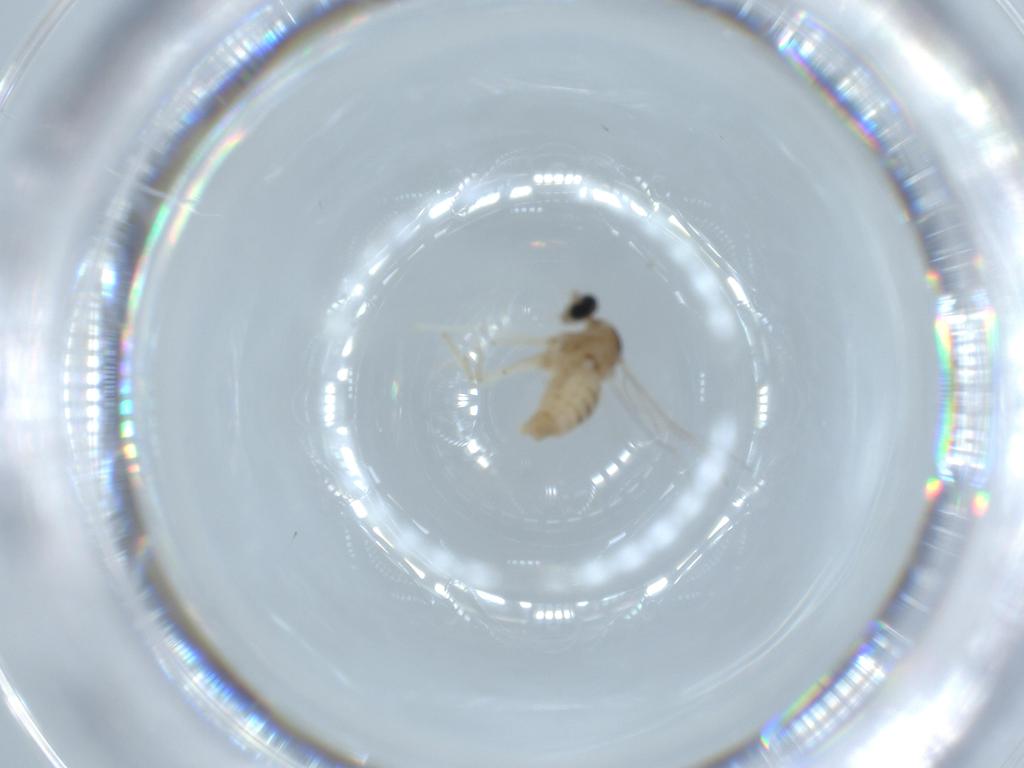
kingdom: Animalia
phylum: Arthropoda
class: Insecta
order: Diptera
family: Cecidomyiidae
